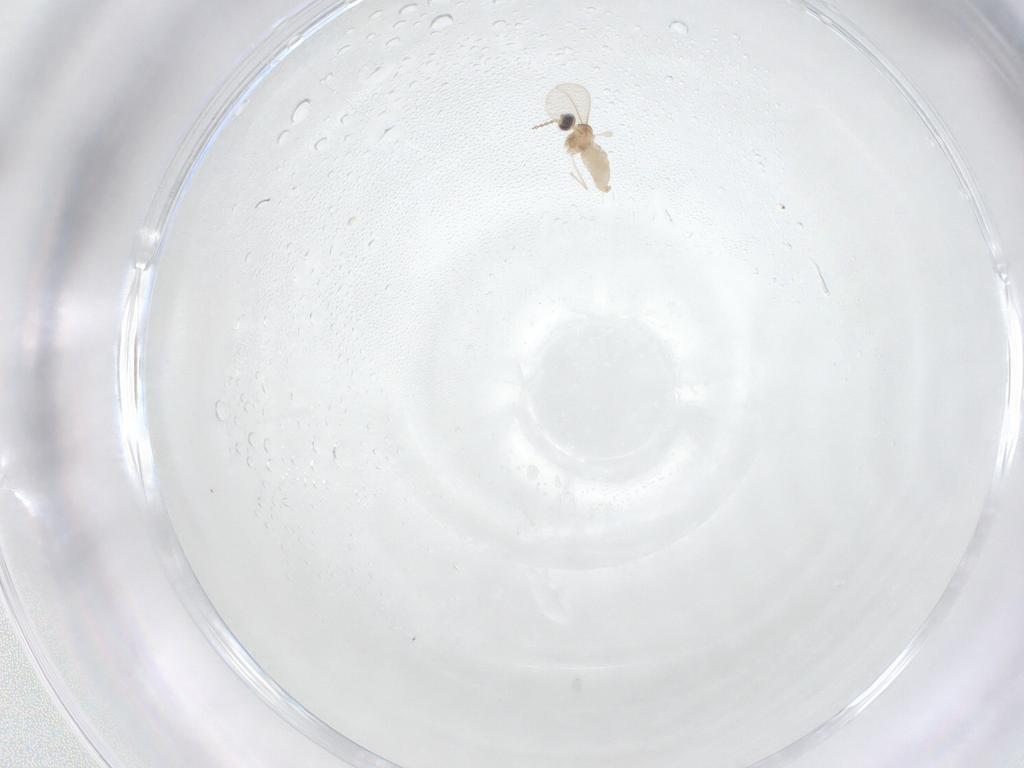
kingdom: Animalia
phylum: Arthropoda
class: Insecta
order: Diptera
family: Cecidomyiidae
